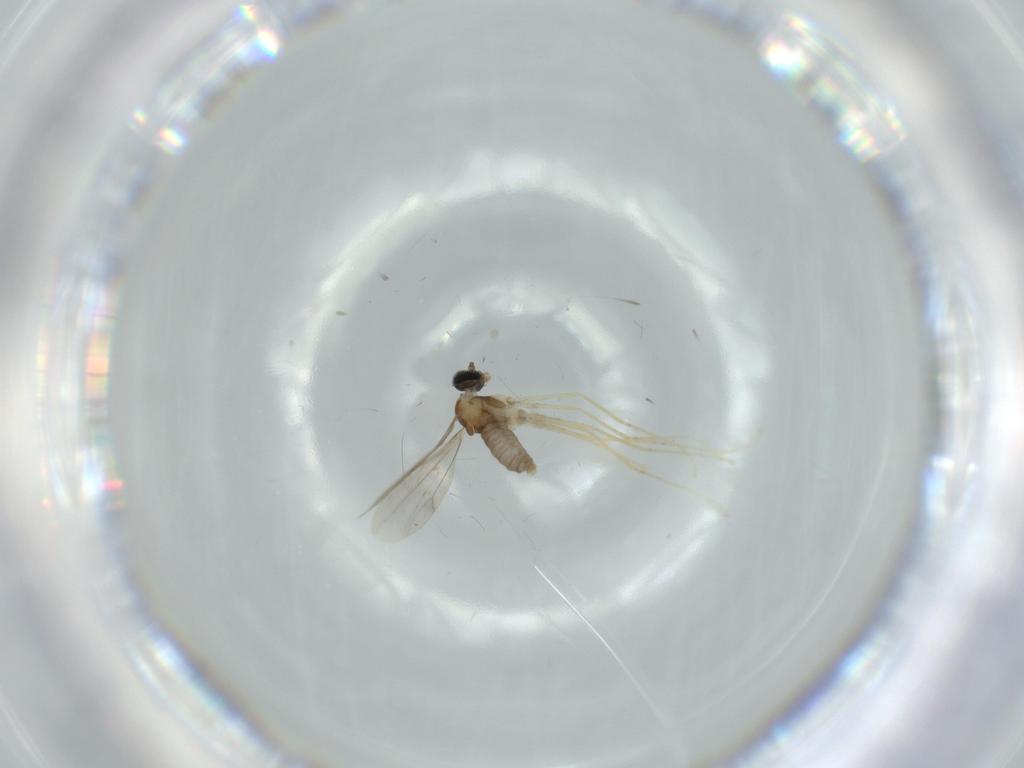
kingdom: Animalia
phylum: Arthropoda
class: Insecta
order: Diptera
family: Cecidomyiidae
